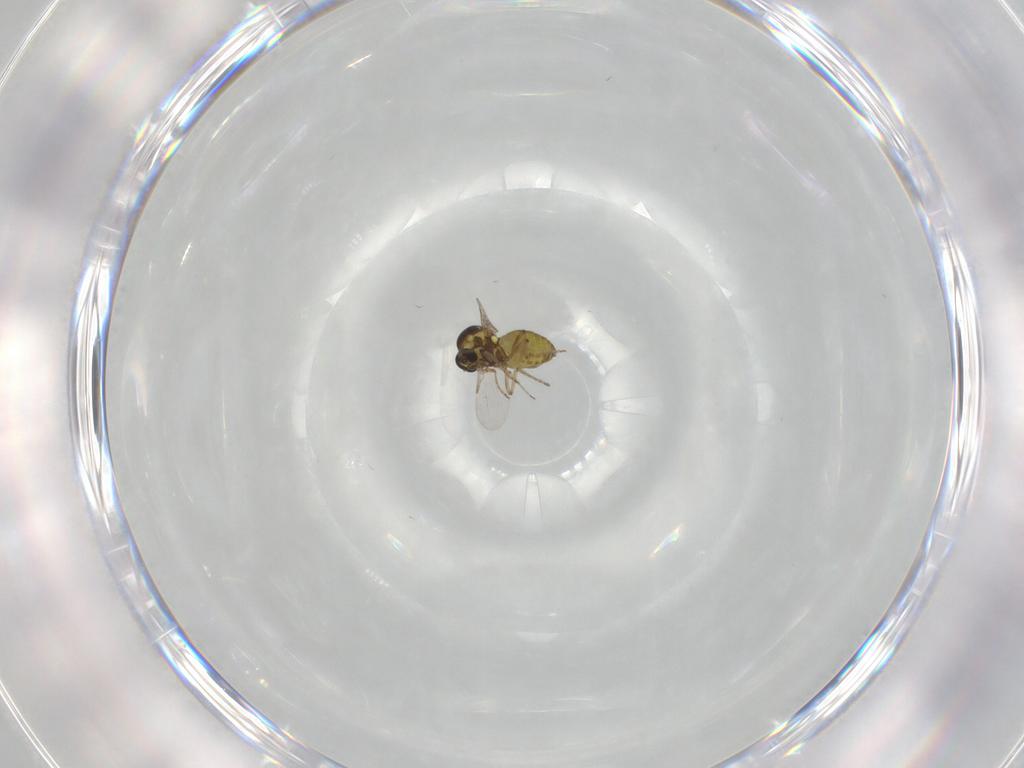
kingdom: Animalia
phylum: Arthropoda
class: Insecta
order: Diptera
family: Ceratopogonidae
